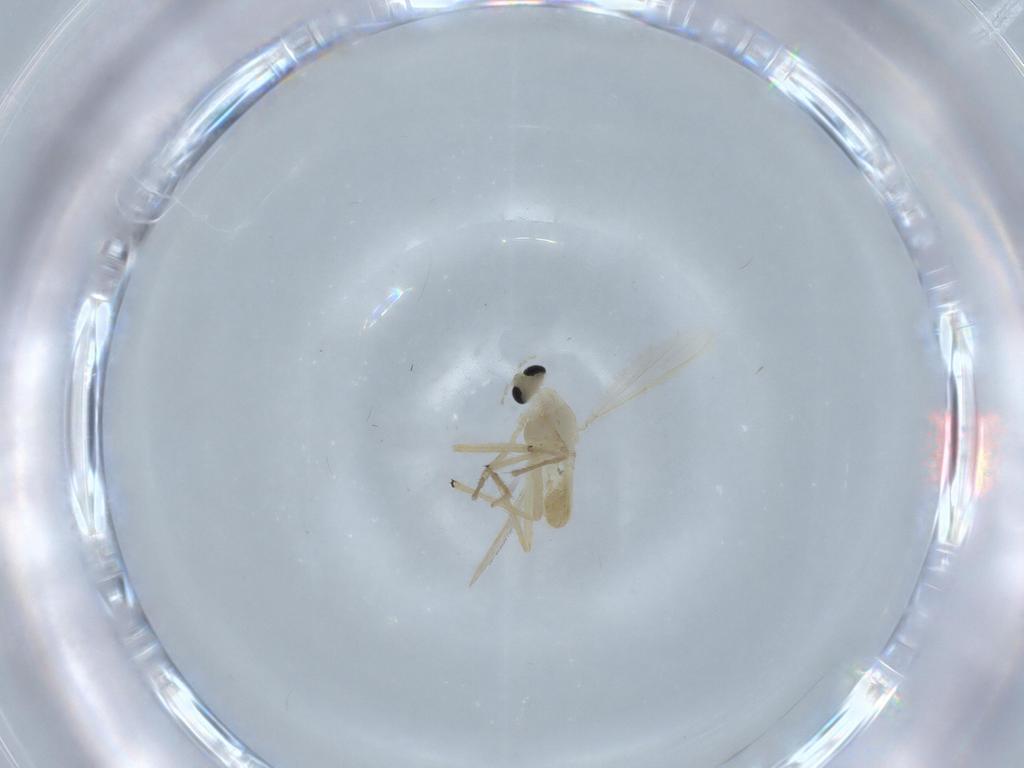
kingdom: Animalia
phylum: Arthropoda
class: Insecta
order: Diptera
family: Chironomidae
